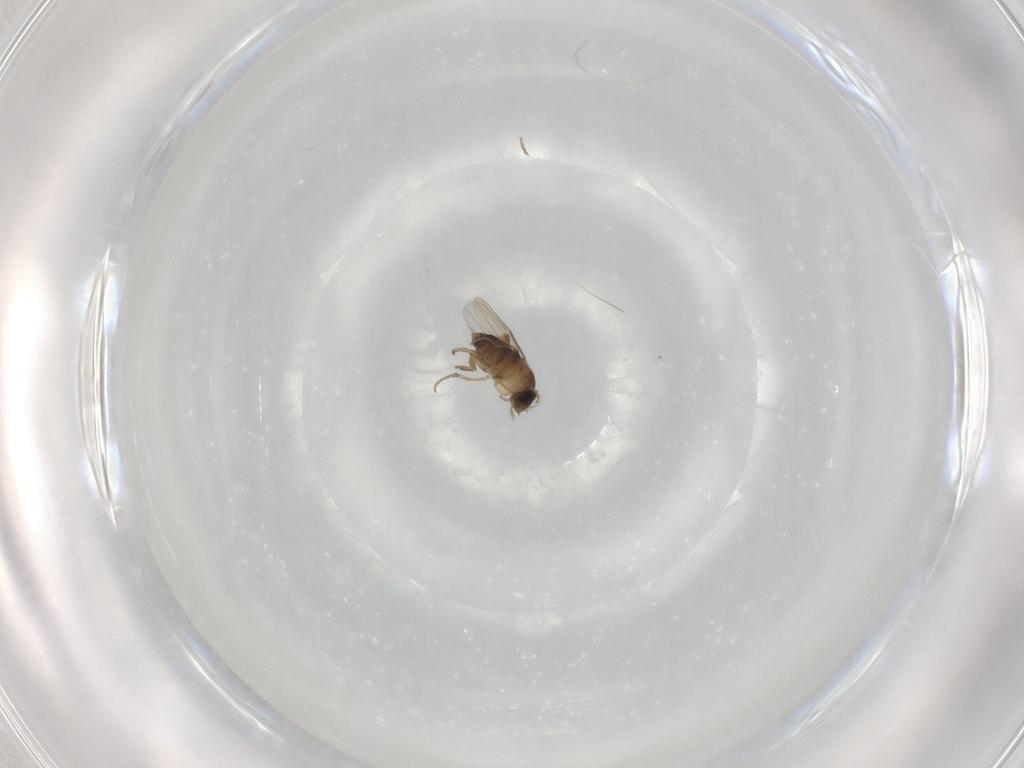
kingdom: Animalia
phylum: Arthropoda
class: Insecta
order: Diptera
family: Phoridae
